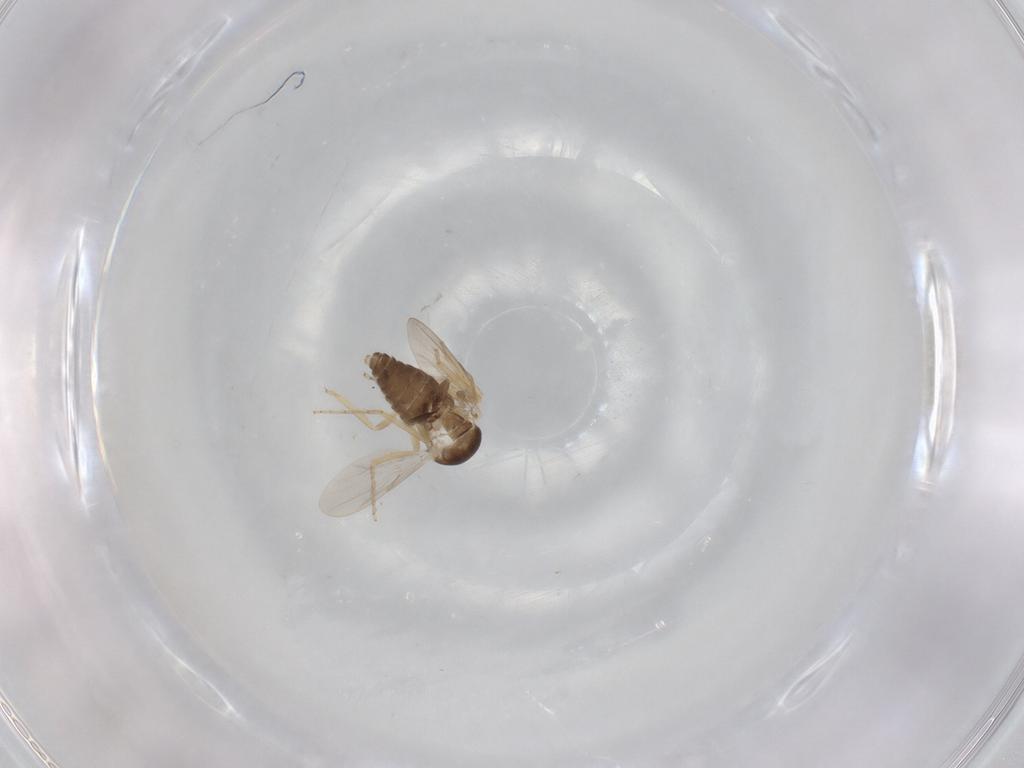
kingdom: Animalia
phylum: Arthropoda
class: Insecta
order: Diptera
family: Ceratopogonidae
